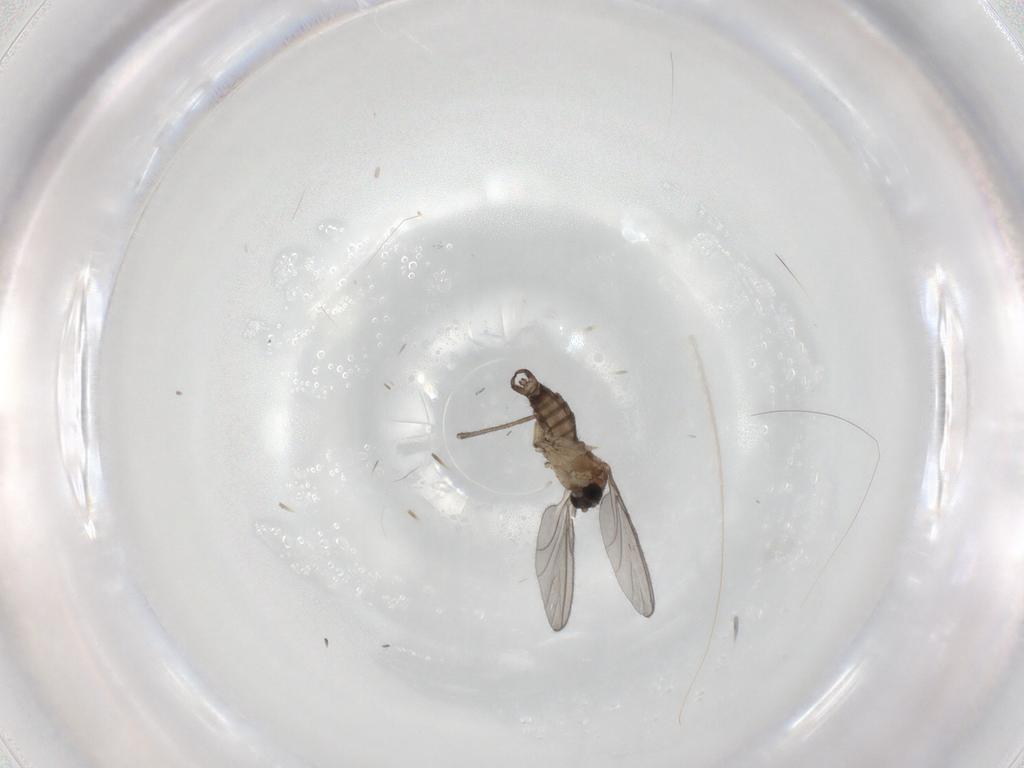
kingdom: Animalia
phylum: Arthropoda
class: Insecta
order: Diptera
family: Sciaridae
